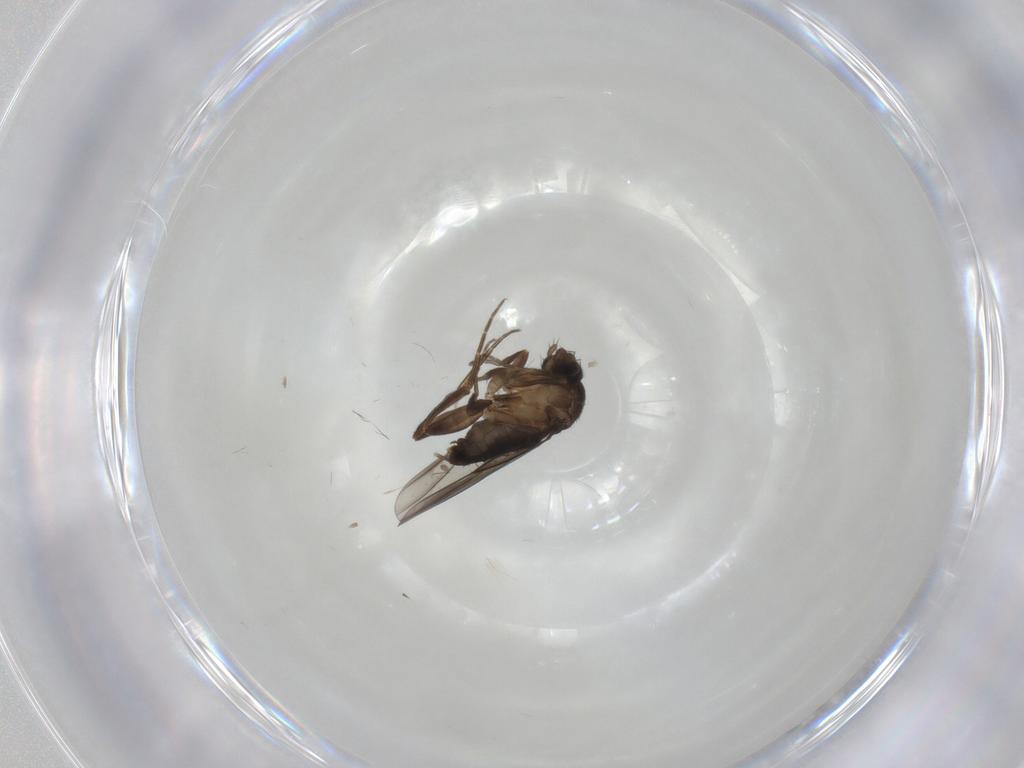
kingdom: Animalia
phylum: Arthropoda
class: Insecta
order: Diptera
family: Phoridae
